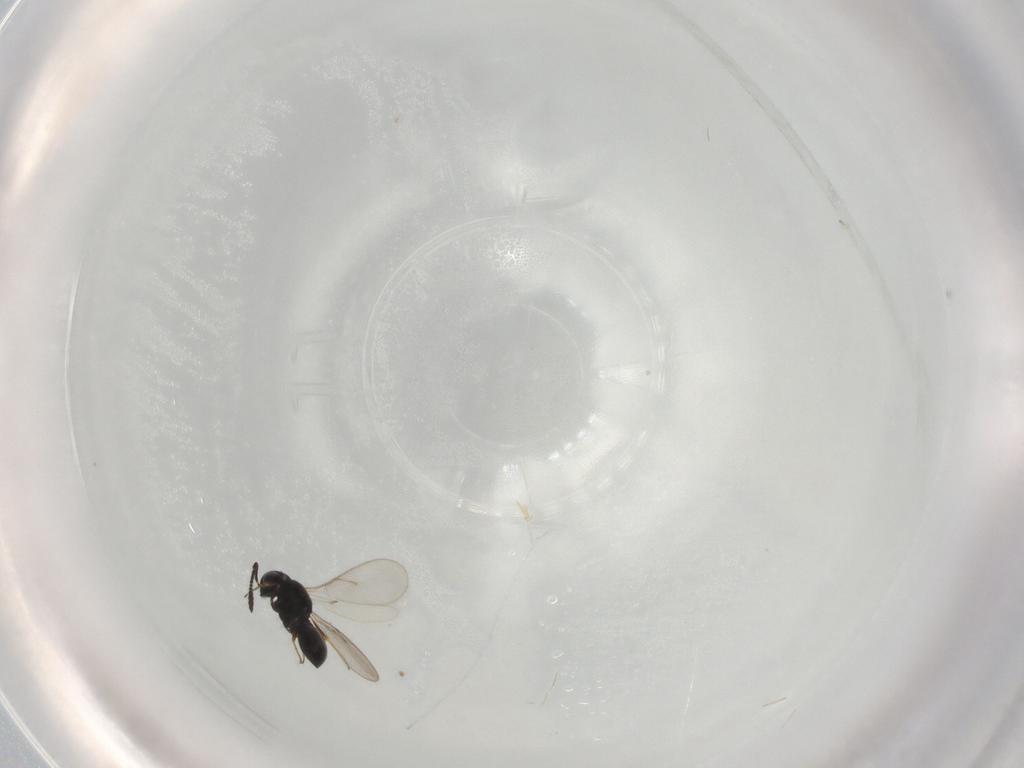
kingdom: Animalia
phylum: Arthropoda
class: Insecta
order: Hymenoptera
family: Scelionidae
